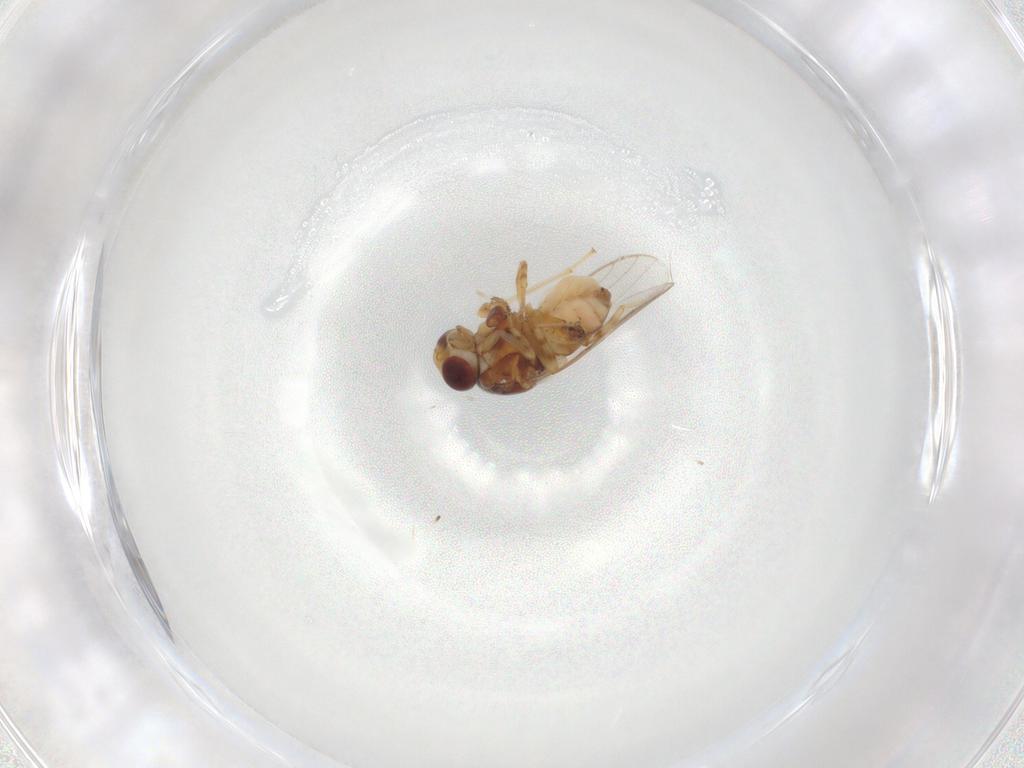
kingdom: Animalia
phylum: Arthropoda
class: Insecta
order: Diptera
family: Chloropidae
